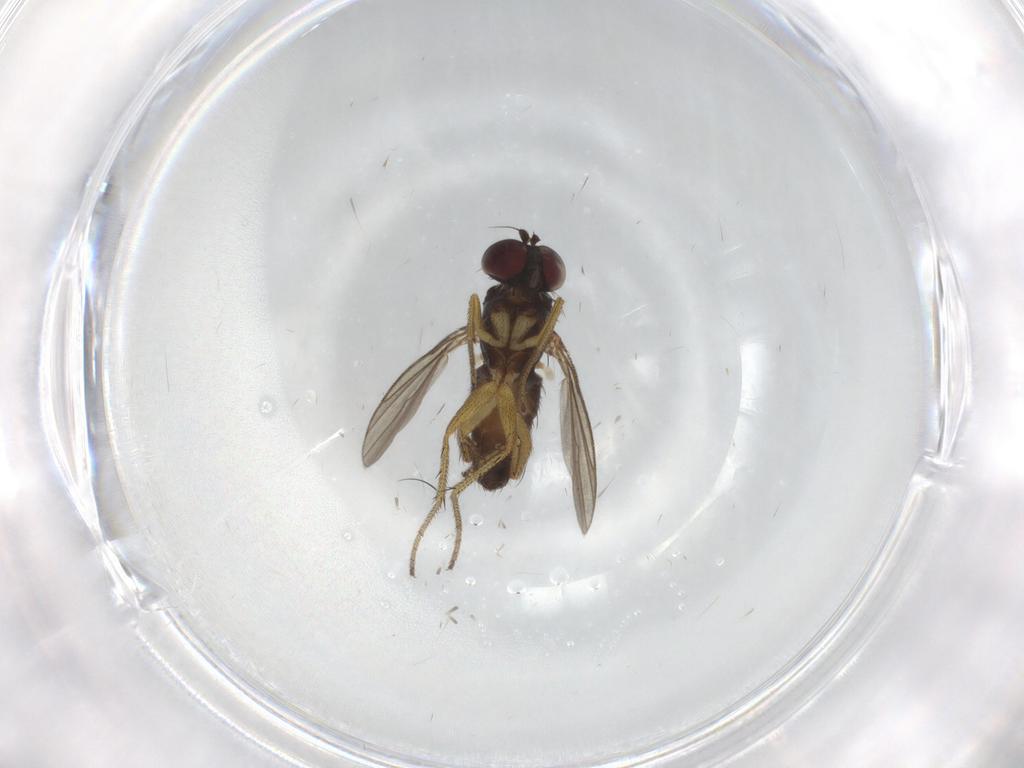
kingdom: Animalia
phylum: Arthropoda
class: Insecta
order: Diptera
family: Dolichopodidae
